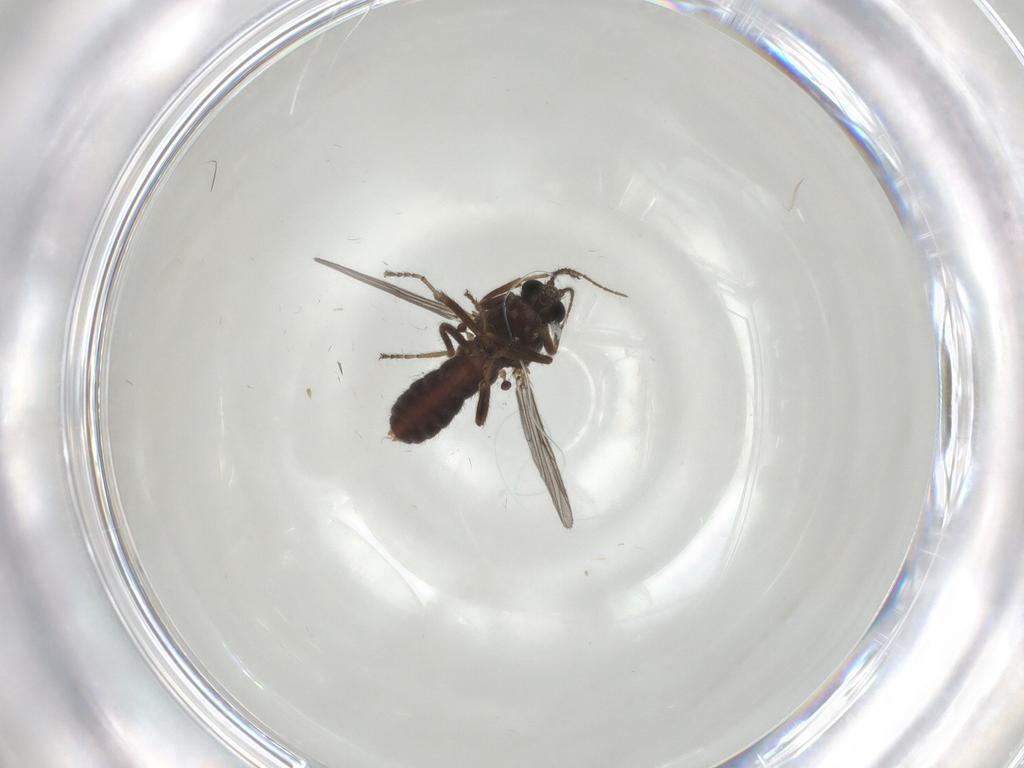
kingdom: Animalia
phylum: Arthropoda
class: Insecta
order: Diptera
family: Ceratopogonidae
